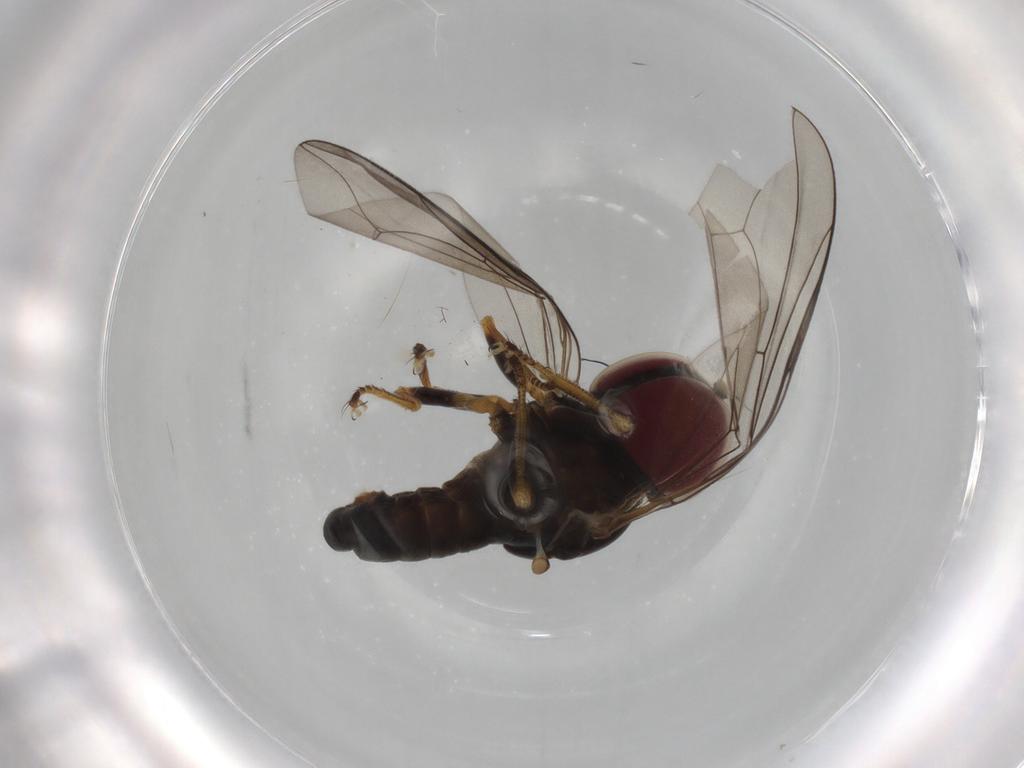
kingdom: Animalia
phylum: Arthropoda
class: Insecta
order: Diptera
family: Pipunculidae
